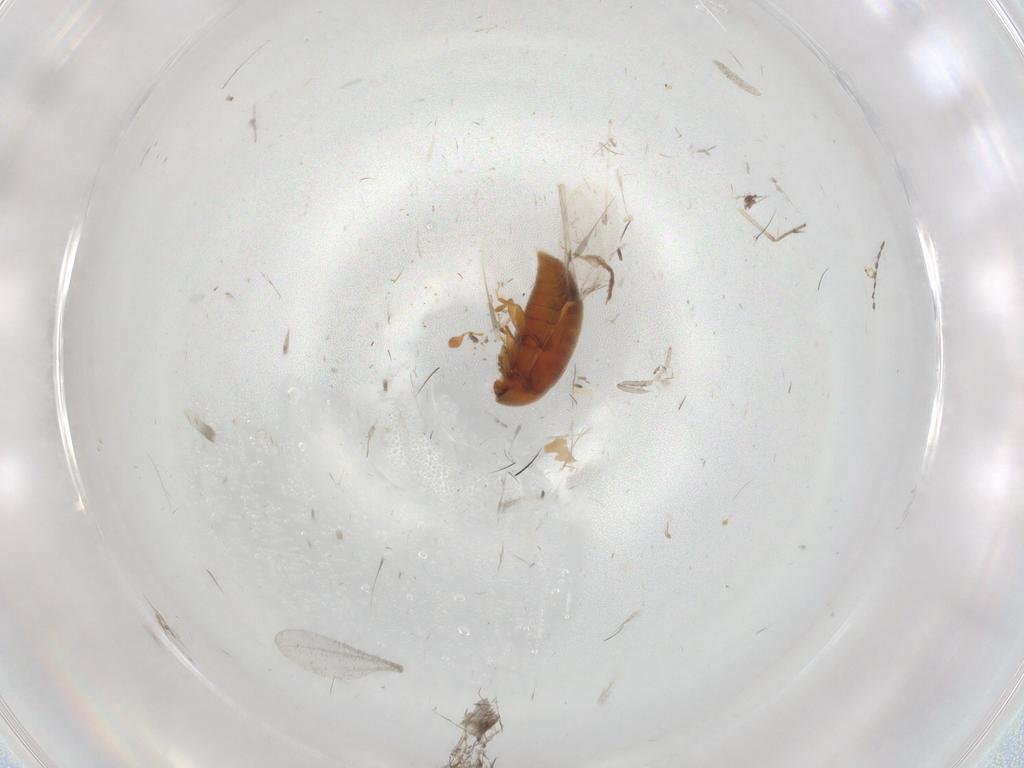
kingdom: Animalia
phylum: Arthropoda
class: Insecta
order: Coleoptera
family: Corylophidae
